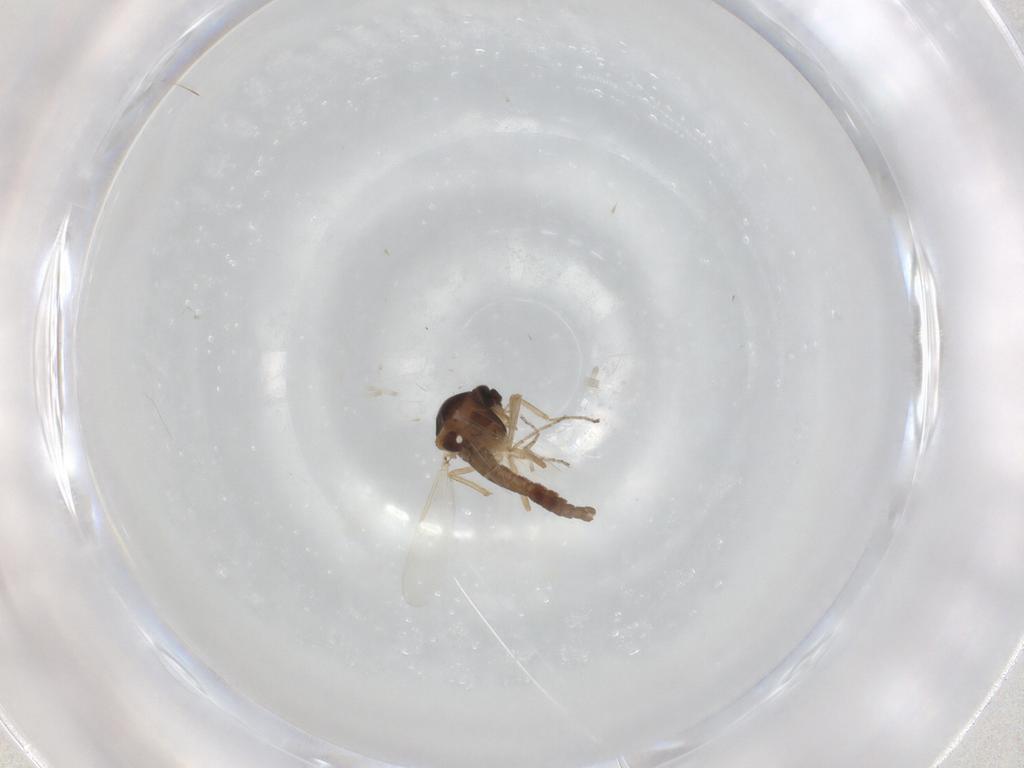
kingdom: Animalia
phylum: Arthropoda
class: Insecta
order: Diptera
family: Ceratopogonidae
